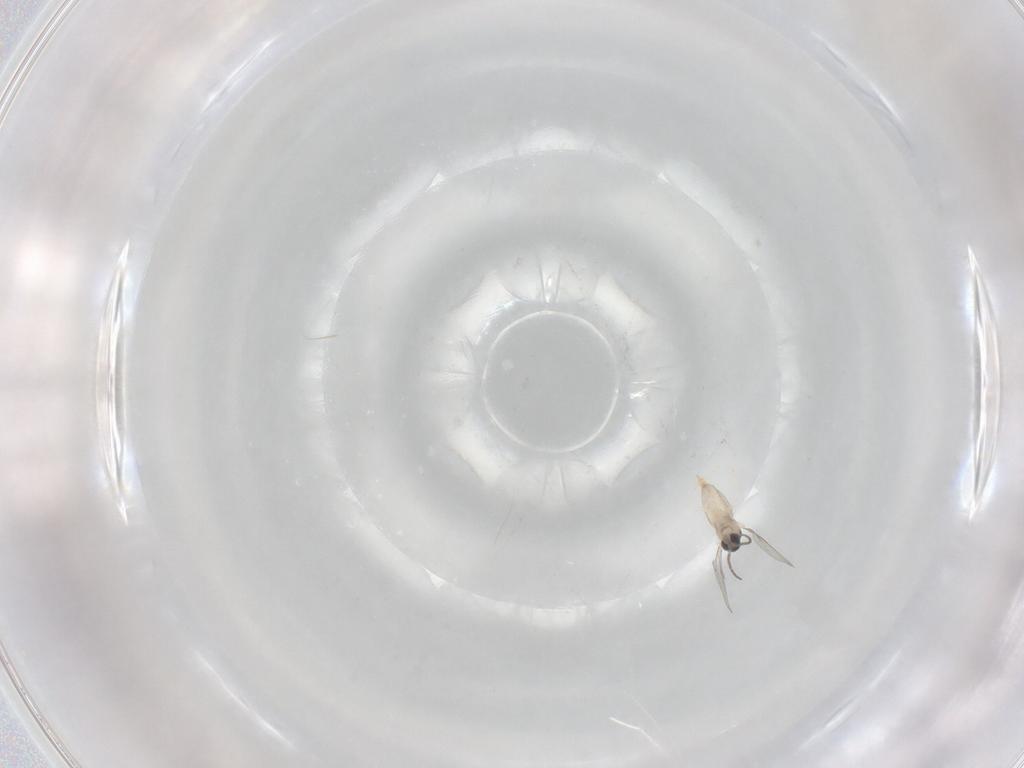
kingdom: Animalia
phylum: Arthropoda
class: Insecta
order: Diptera
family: Cecidomyiidae
